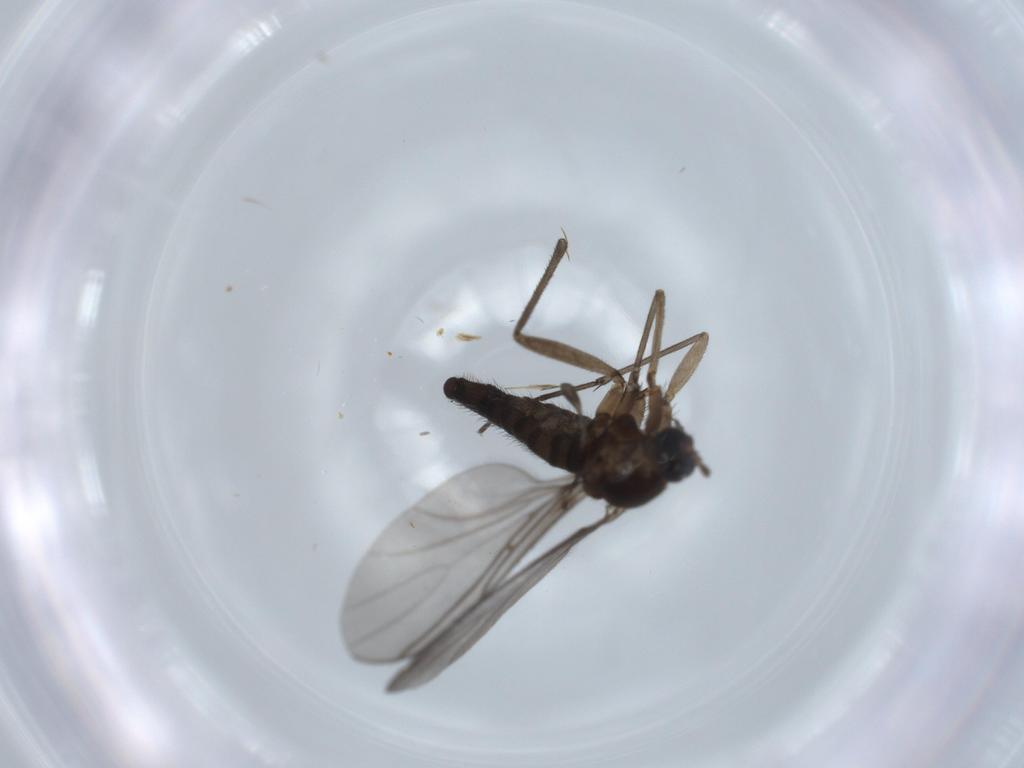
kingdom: Animalia
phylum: Arthropoda
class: Insecta
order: Diptera
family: Sciaridae
